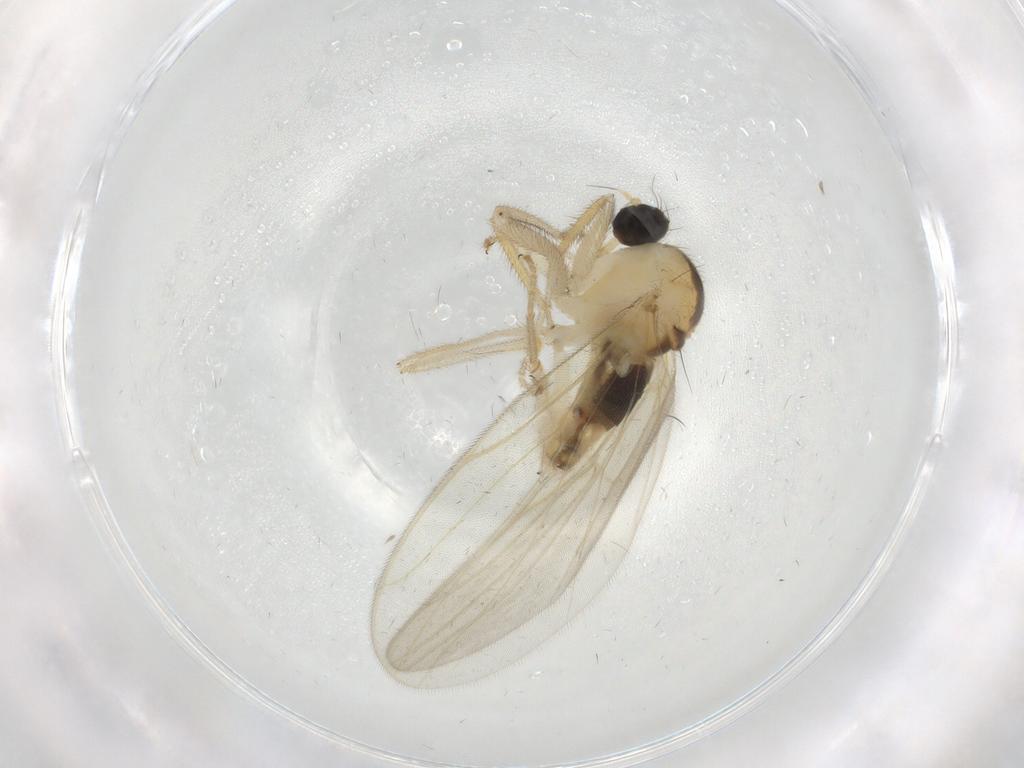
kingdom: Animalia
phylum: Arthropoda
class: Insecta
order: Diptera
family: Hybotidae
